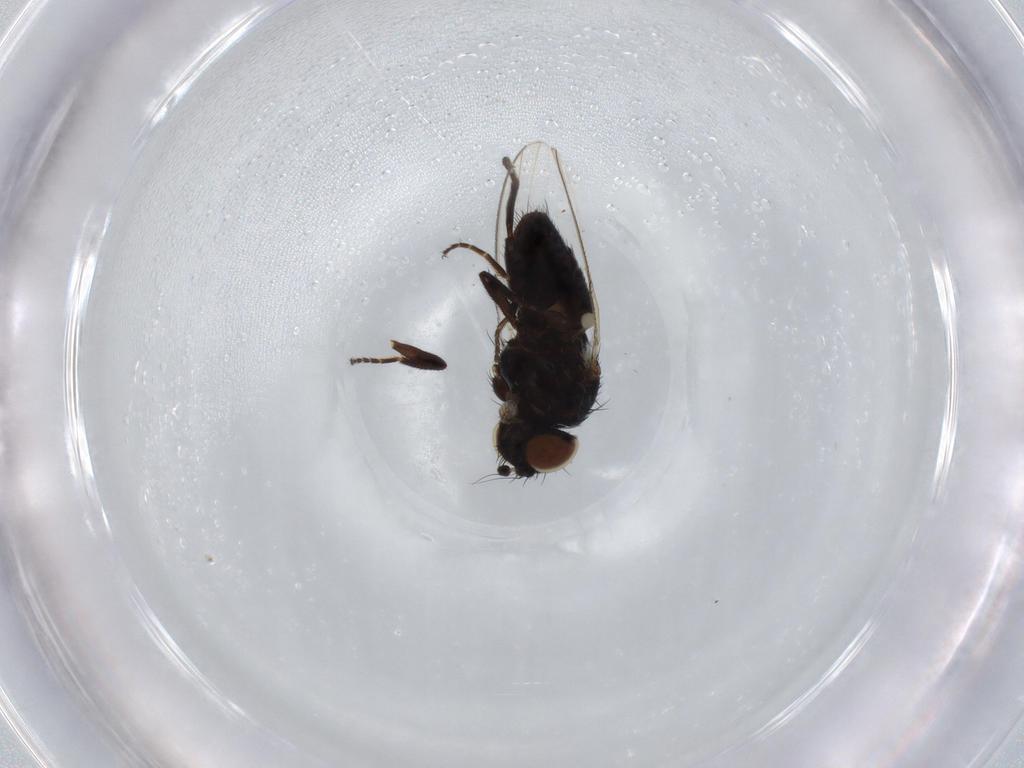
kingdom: Animalia
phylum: Arthropoda
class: Insecta
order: Diptera
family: Milichiidae
